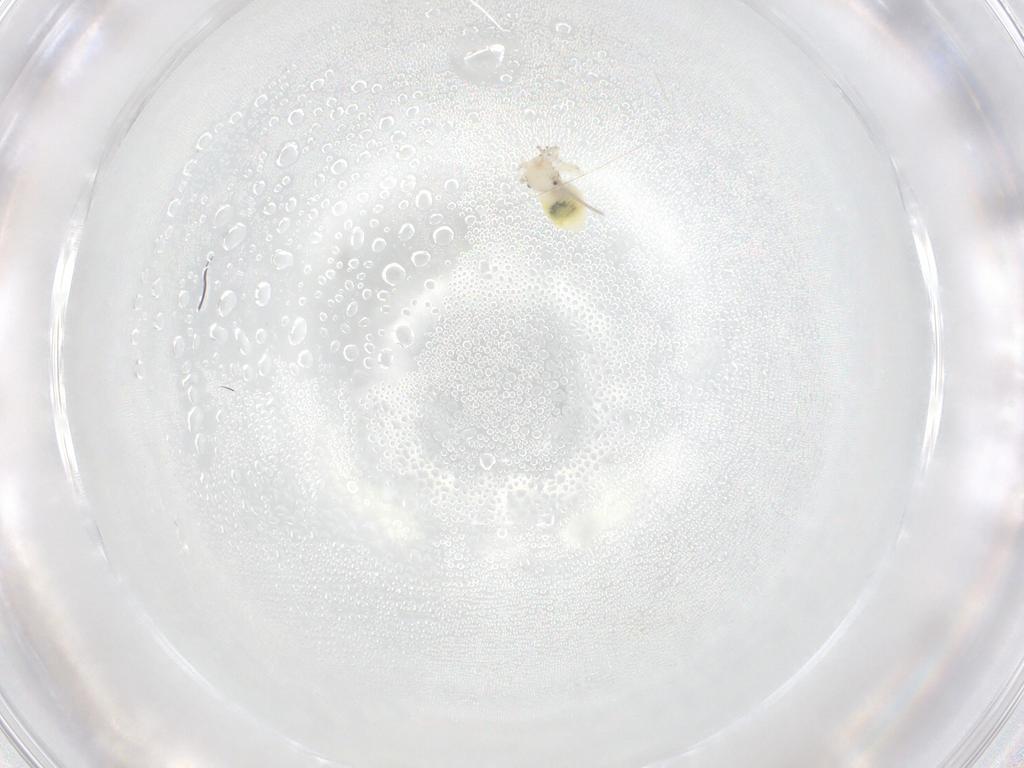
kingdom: Animalia
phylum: Arthropoda
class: Insecta
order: Psocodea
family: Caeciliusidae
